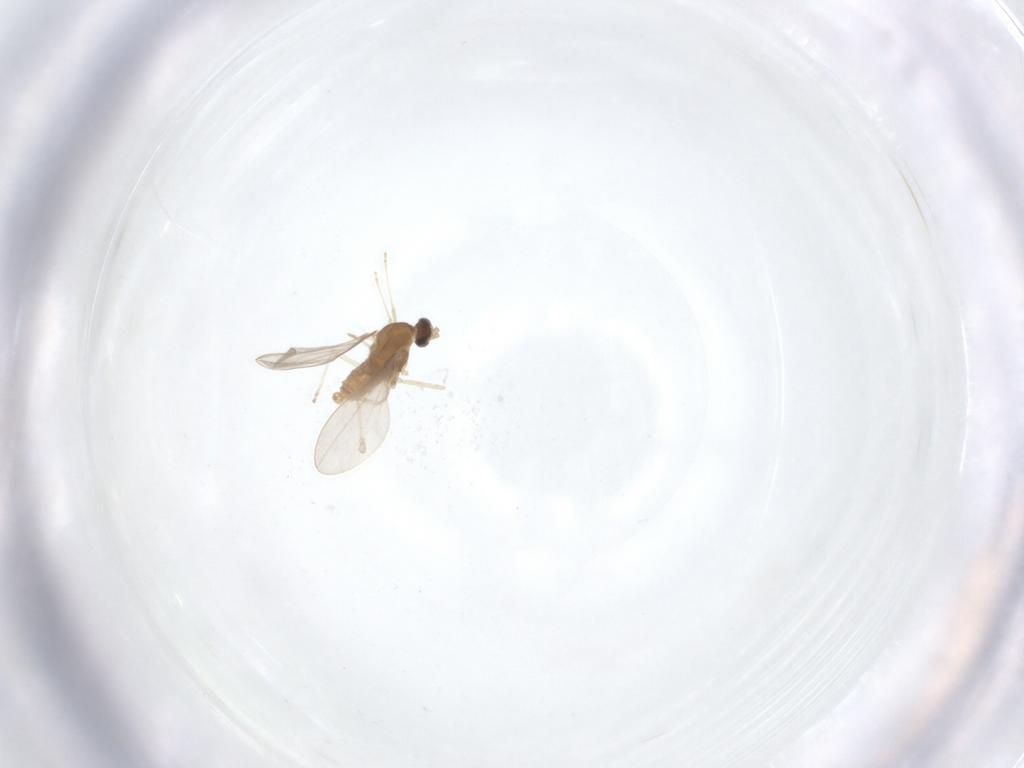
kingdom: Animalia
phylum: Arthropoda
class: Insecta
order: Diptera
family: Cecidomyiidae
